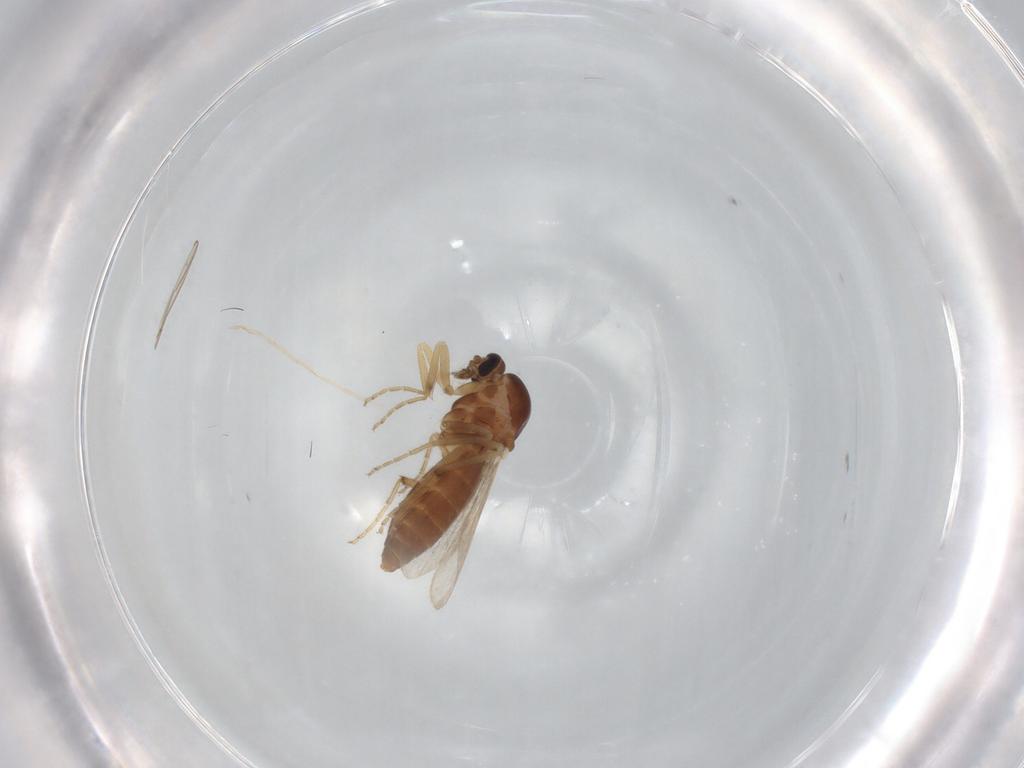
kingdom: Animalia
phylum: Arthropoda
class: Insecta
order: Diptera
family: Ceratopogonidae
